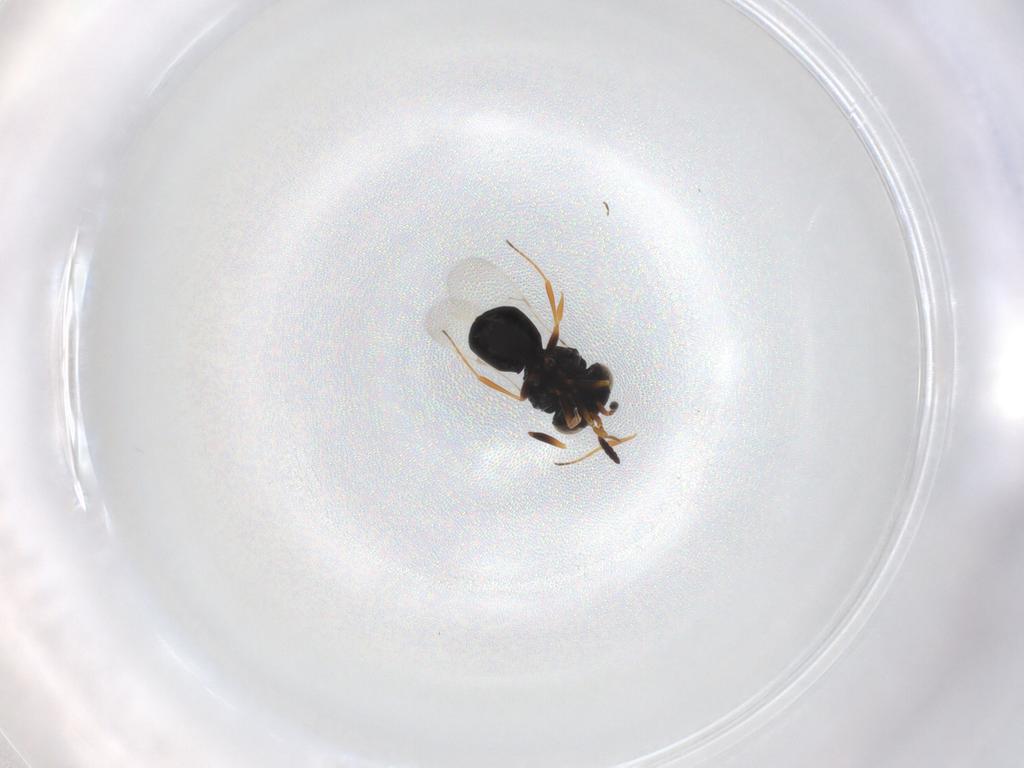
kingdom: Animalia
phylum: Arthropoda
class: Insecta
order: Hymenoptera
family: Scelionidae
